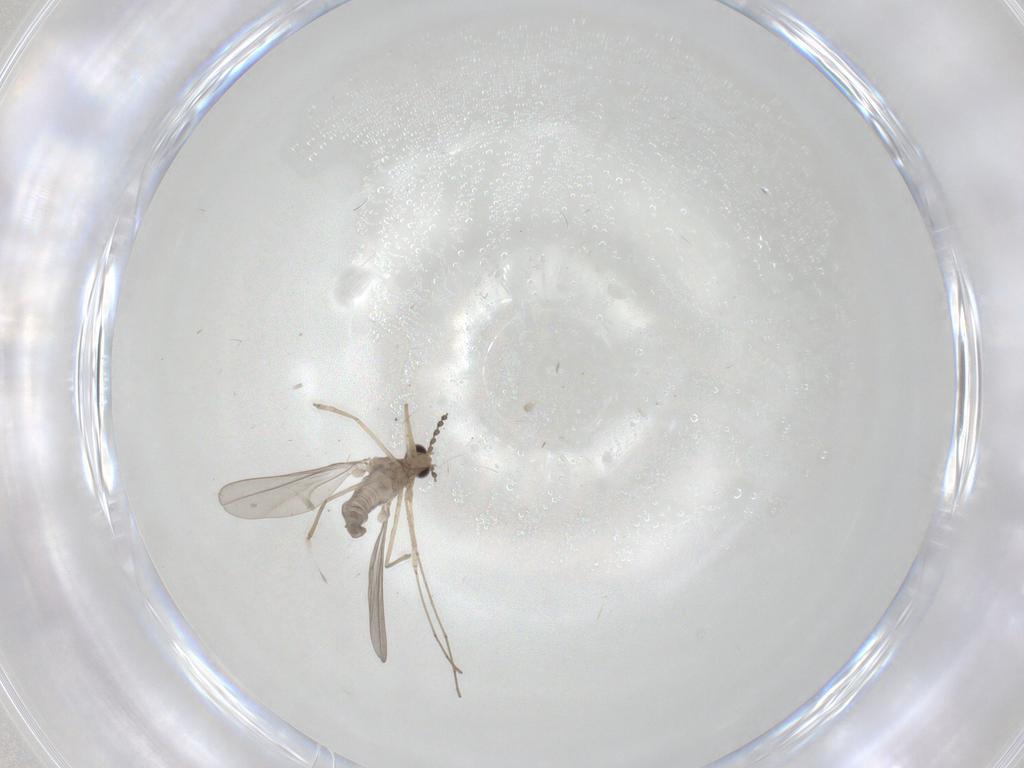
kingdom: Animalia
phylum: Arthropoda
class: Insecta
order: Diptera
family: Cecidomyiidae
